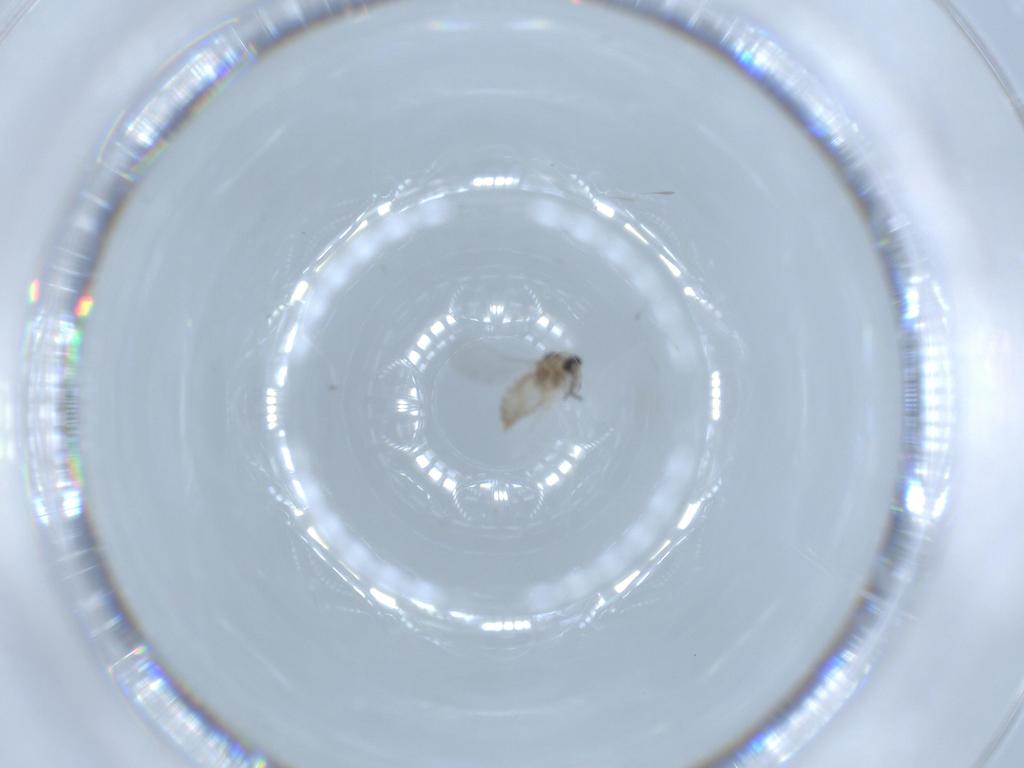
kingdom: Animalia
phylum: Arthropoda
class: Insecta
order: Diptera
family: Cecidomyiidae
